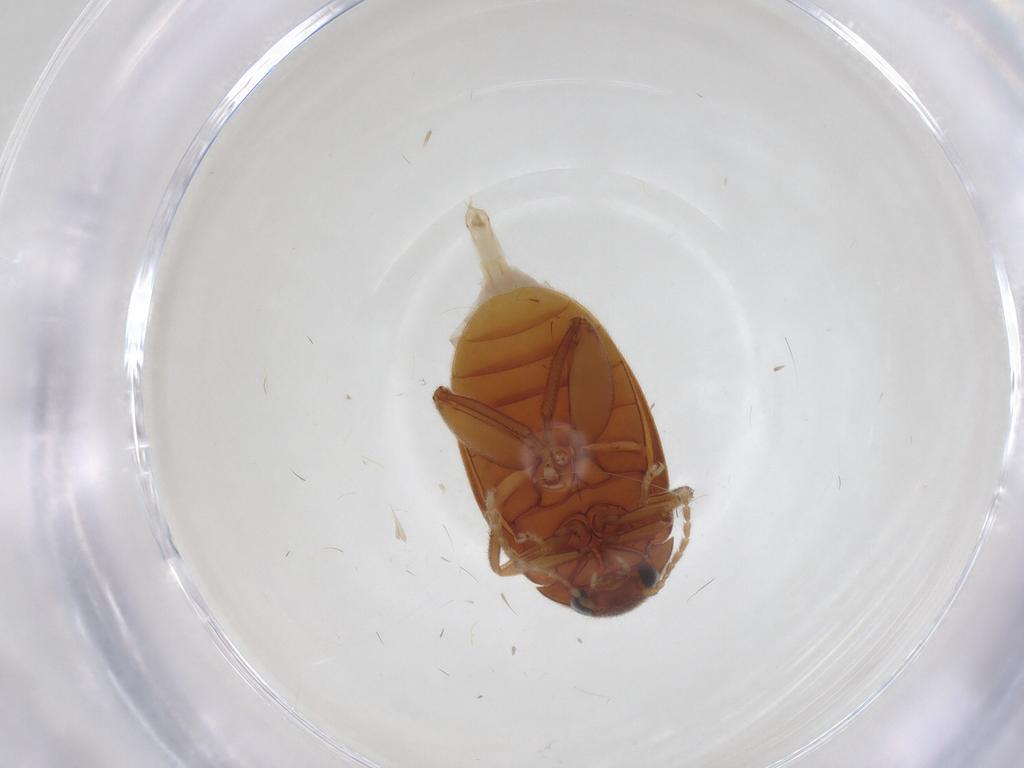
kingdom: Animalia
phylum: Arthropoda
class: Insecta
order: Coleoptera
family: Scirtidae
